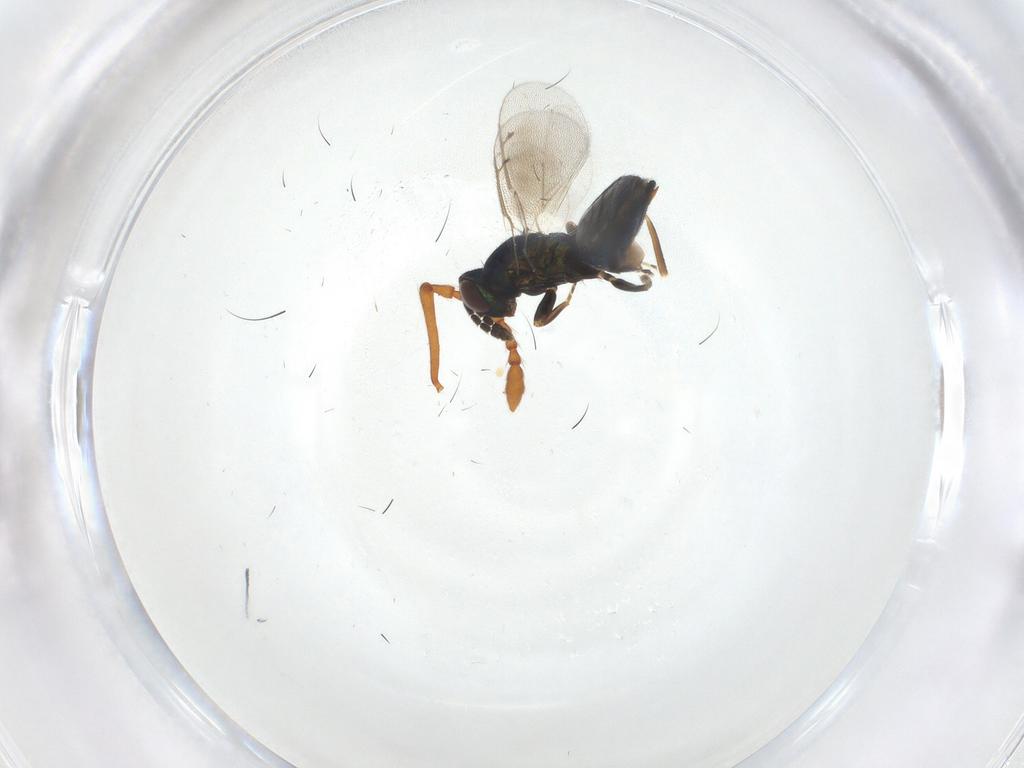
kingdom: Animalia
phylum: Arthropoda
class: Insecta
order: Hymenoptera
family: Eulophidae
